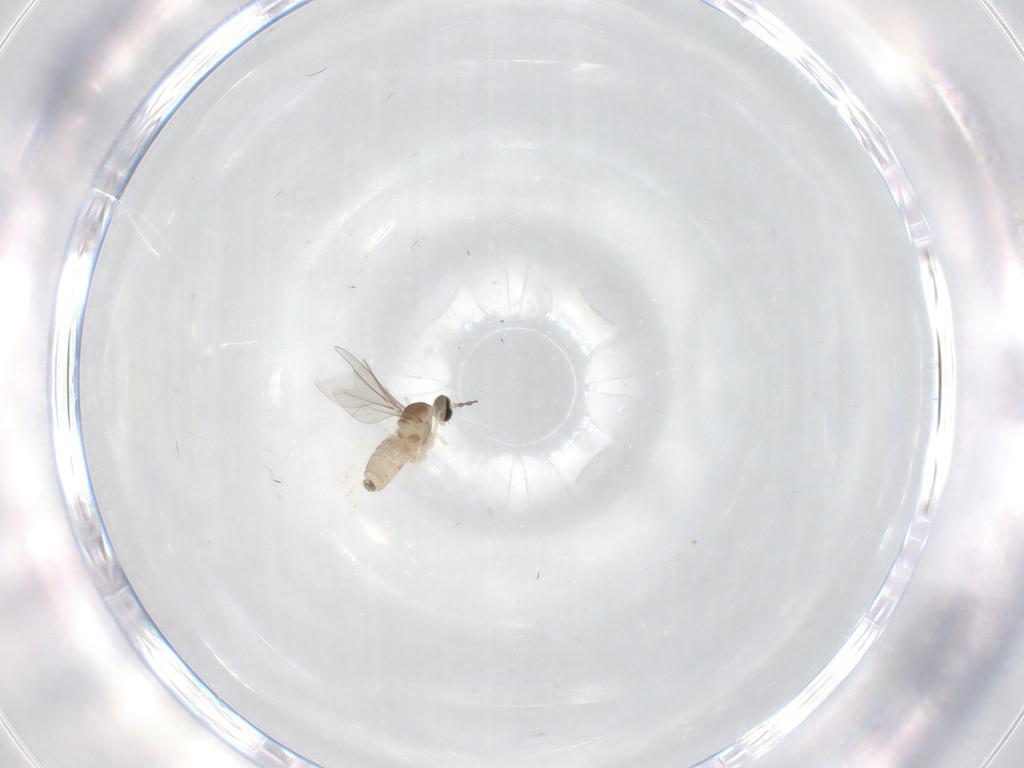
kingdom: Animalia
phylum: Arthropoda
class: Insecta
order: Diptera
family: Cecidomyiidae
